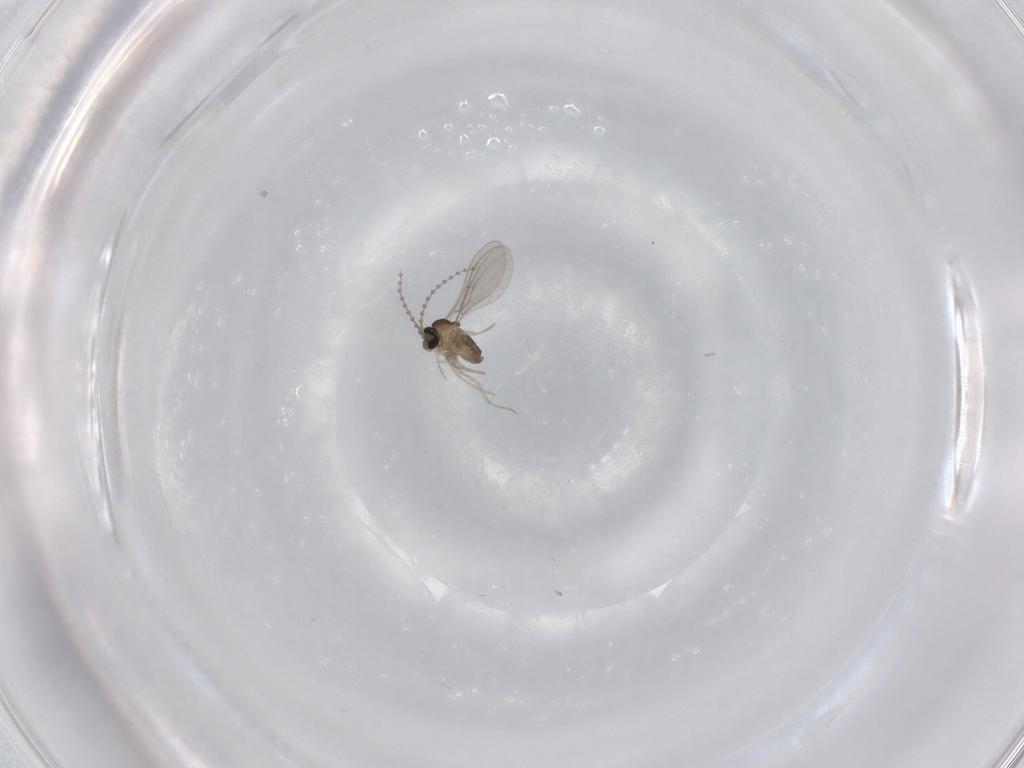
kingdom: Animalia
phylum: Arthropoda
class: Insecta
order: Diptera
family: Cecidomyiidae
